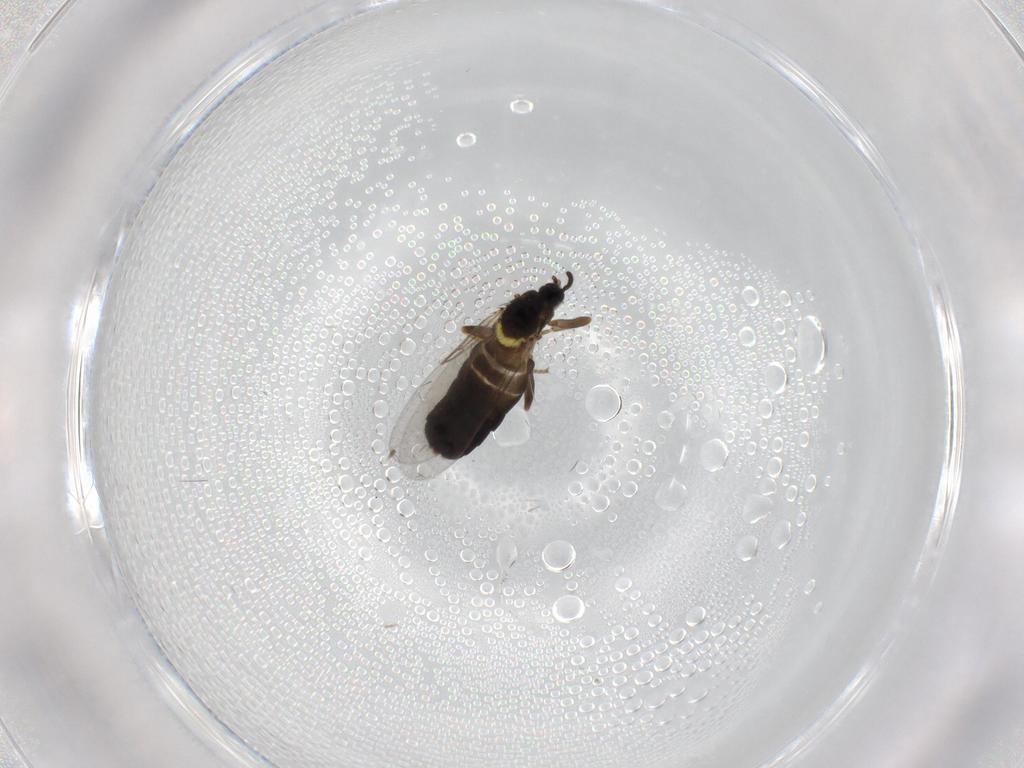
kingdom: Animalia
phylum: Arthropoda
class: Insecta
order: Diptera
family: Scatopsidae
